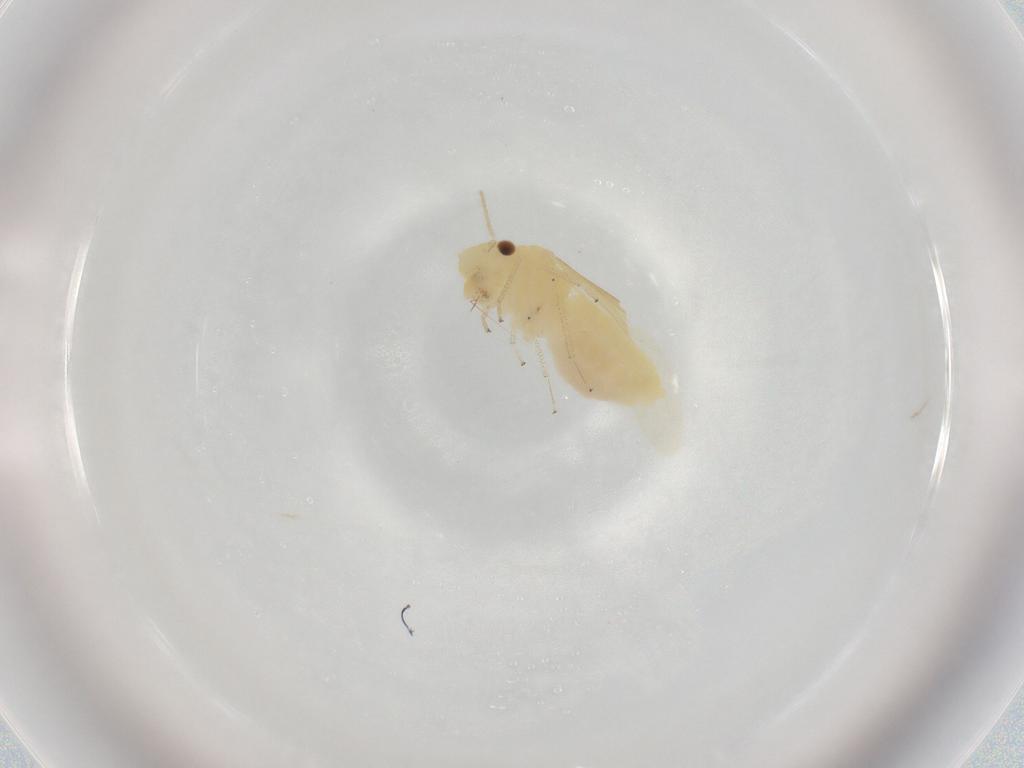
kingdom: Animalia
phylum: Arthropoda
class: Insecta
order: Psocodea
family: Caeciliusidae
